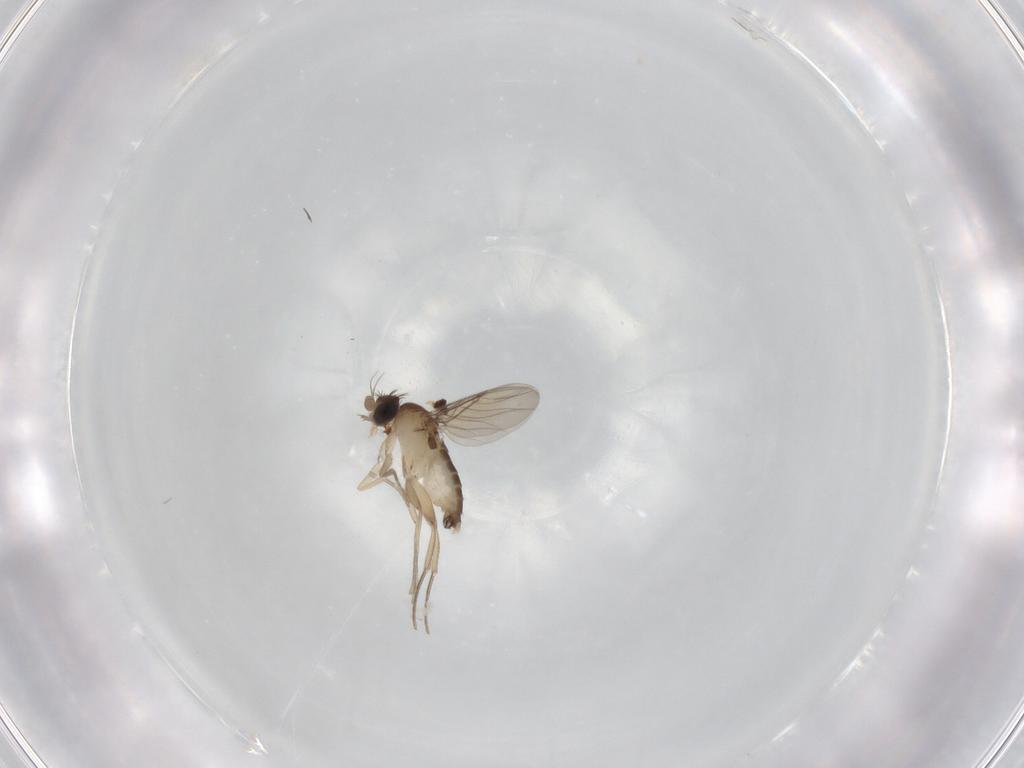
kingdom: Animalia
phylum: Arthropoda
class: Insecta
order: Diptera
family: Phoridae
